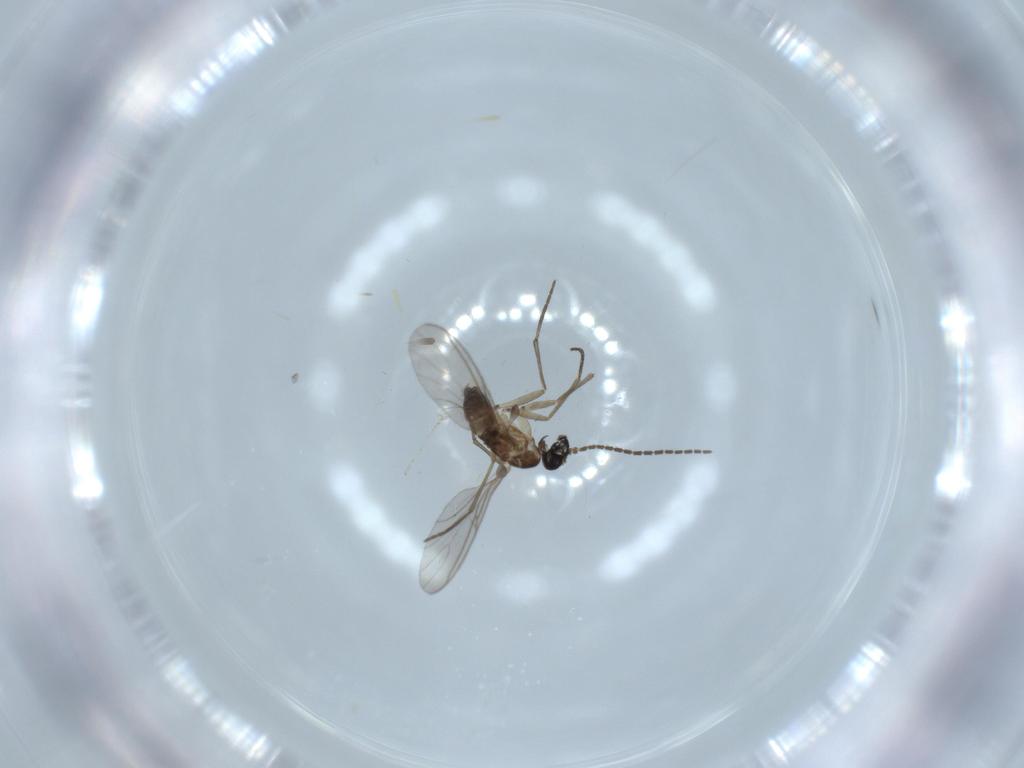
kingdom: Animalia
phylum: Arthropoda
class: Insecta
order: Diptera
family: Sciaridae
